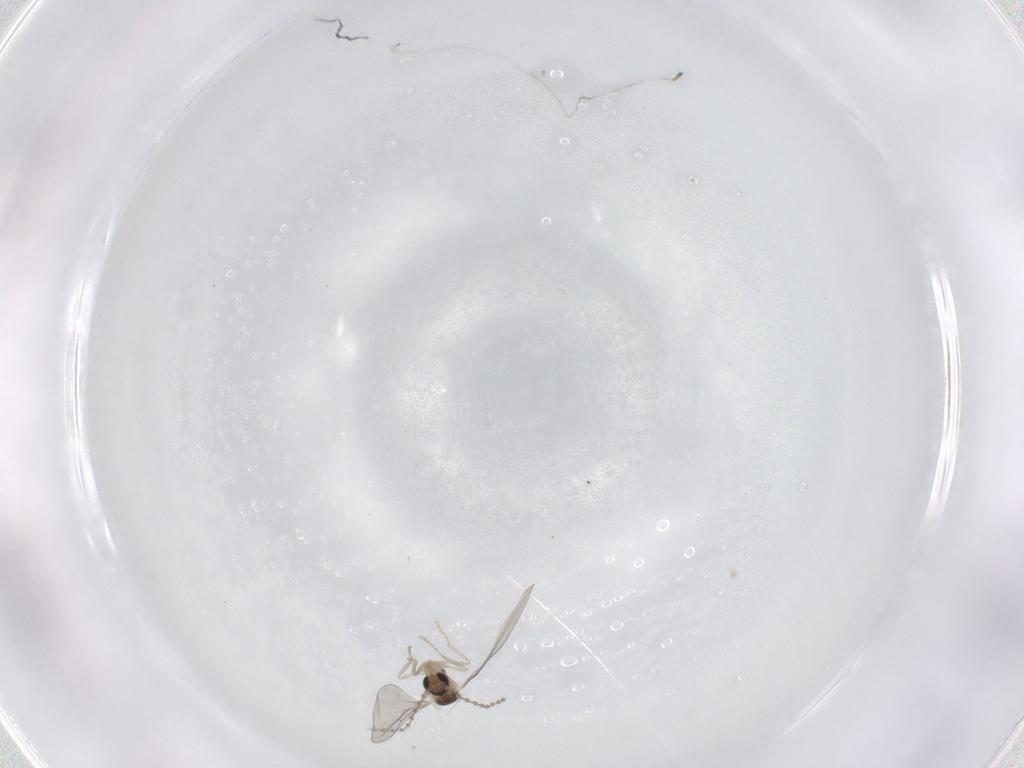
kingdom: Animalia
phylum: Arthropoda
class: Insecta
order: Diptera
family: Cecidomyiidae
